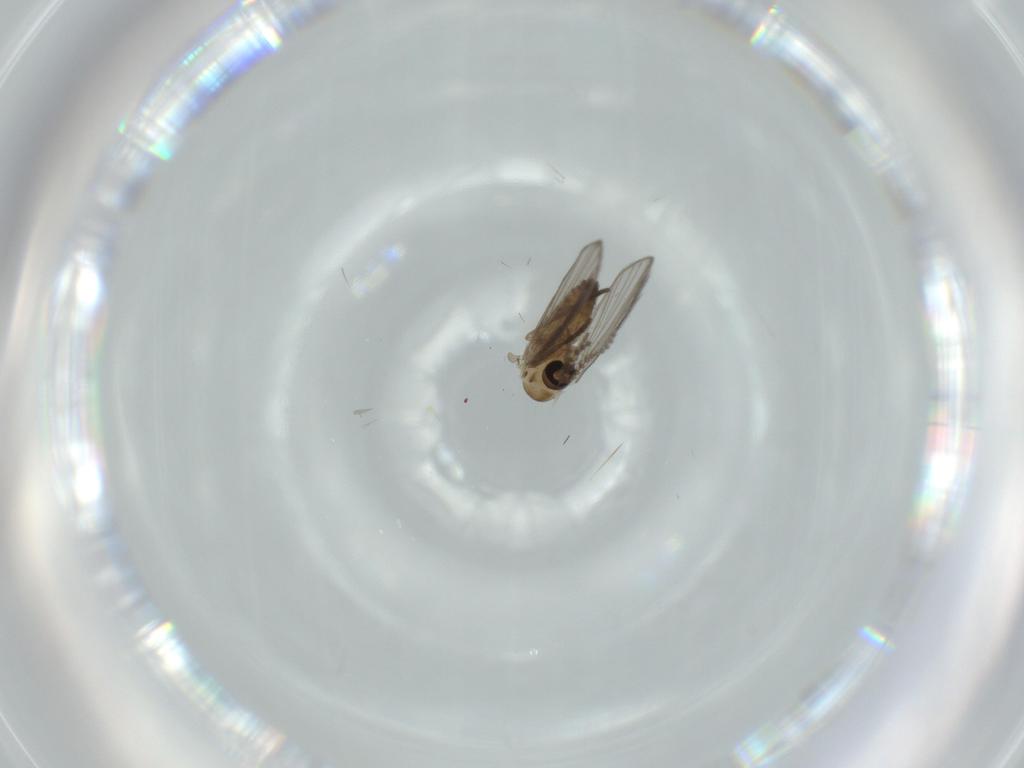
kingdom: Animalia
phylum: Arthropoda
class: Insecta
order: Diptera
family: Psychodidae
